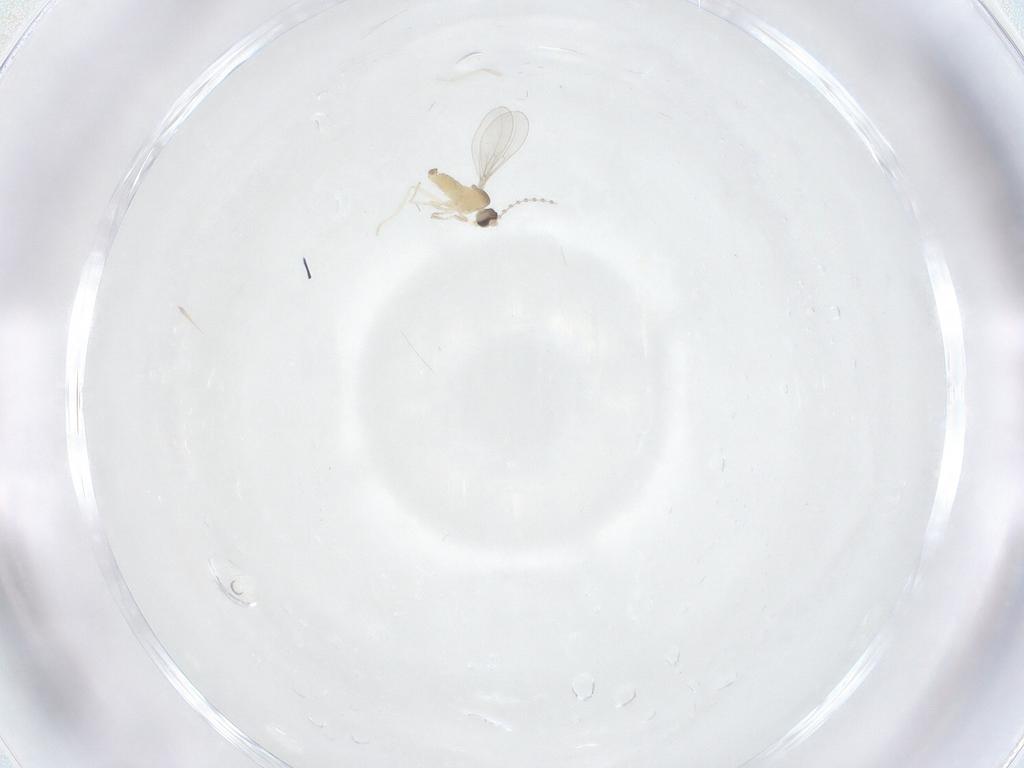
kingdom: Animalia
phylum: Arthropoda
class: Insecta
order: Diptera
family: Cecidomyiidae
